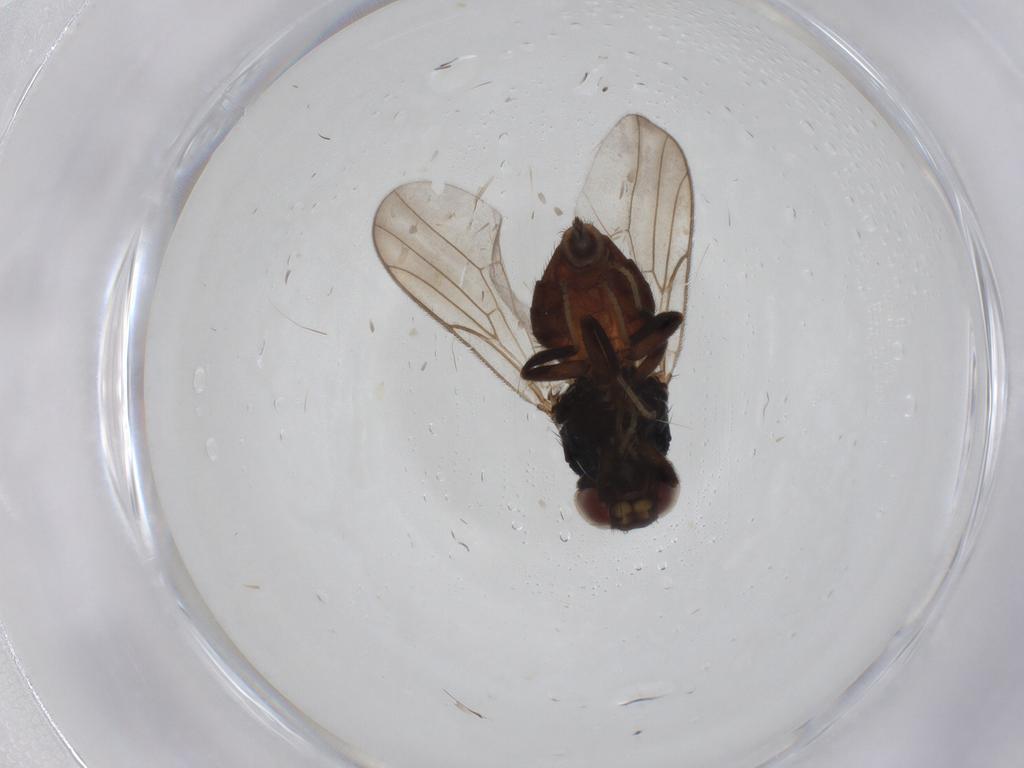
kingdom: Animalia
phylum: Arthropoda
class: Insecta
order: Diptera
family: Chloropidae
